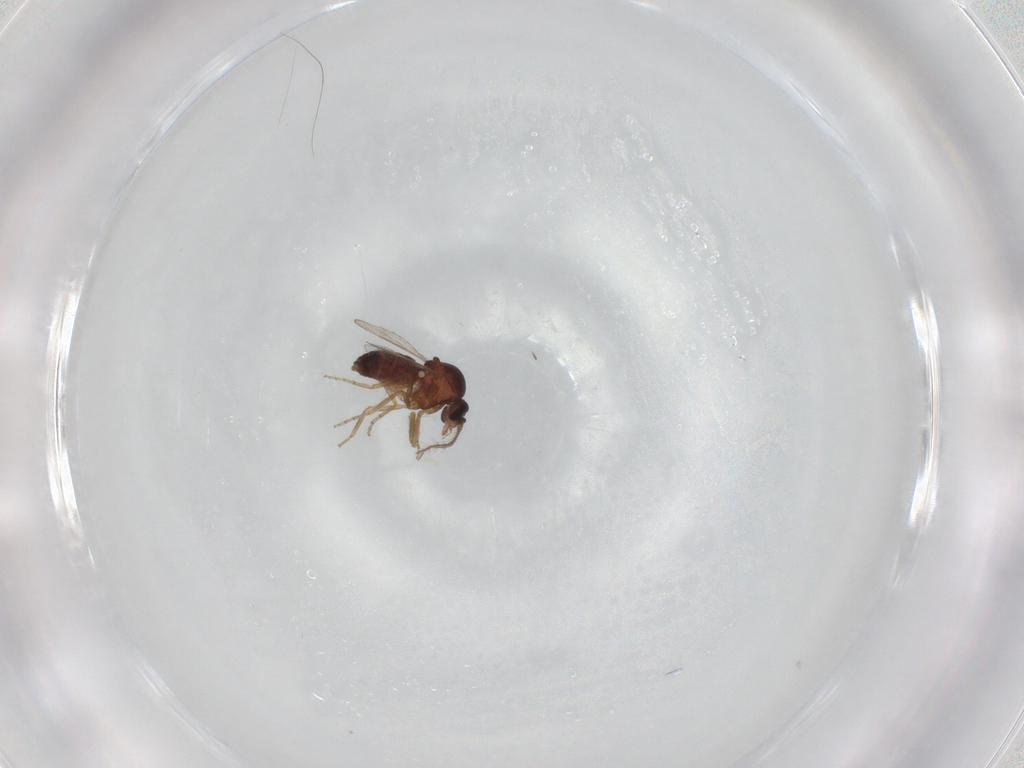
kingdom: Animalia
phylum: Arthropoda
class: Insecta
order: Diptera
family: Ceratopogonidae
